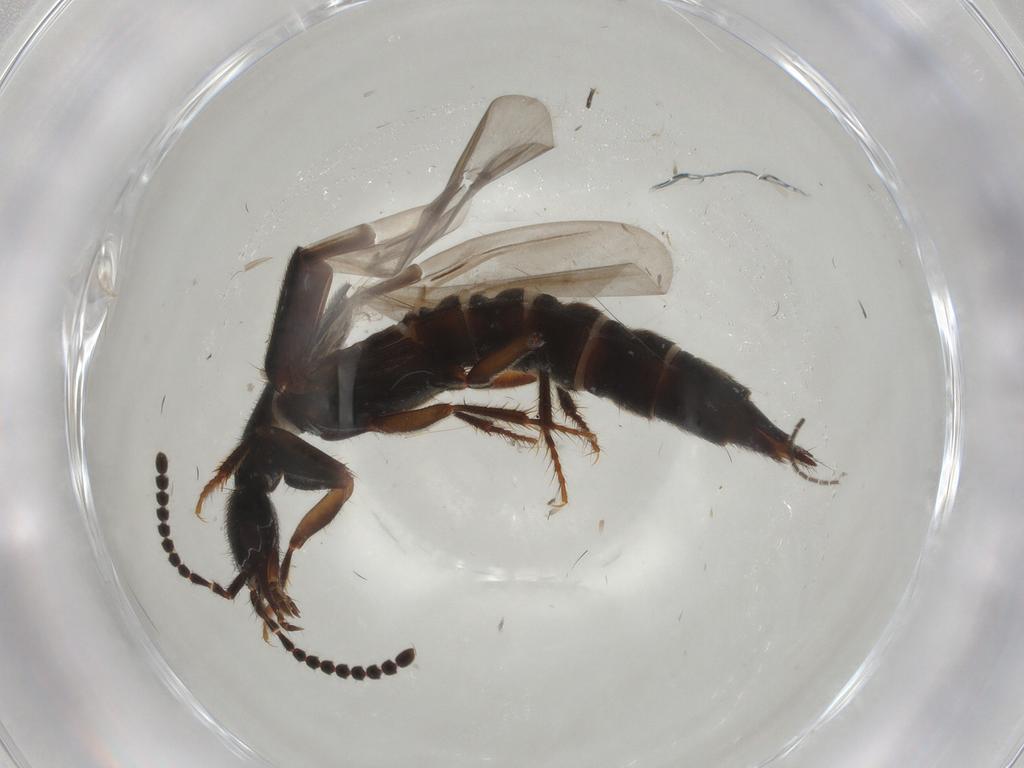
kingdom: Animalia
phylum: Arthropoda
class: Insecta
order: Coleoptera
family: Staphylinidae
